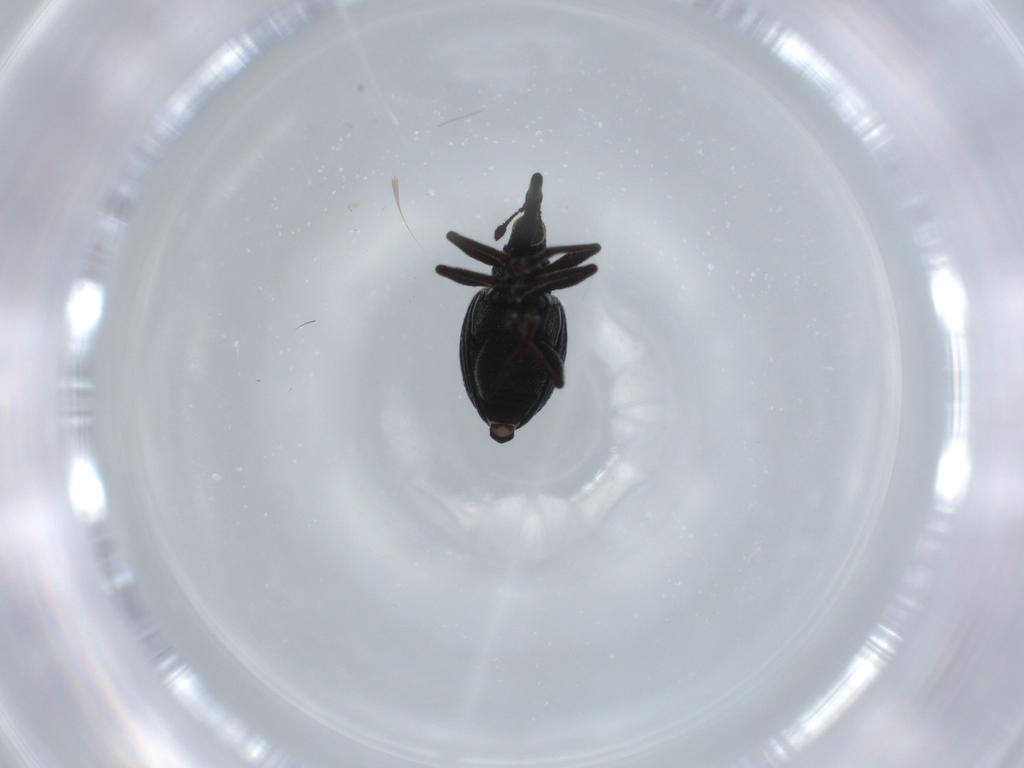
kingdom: Animalia
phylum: Arthropoda
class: Insecta
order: Coleoptera
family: Brentidae
